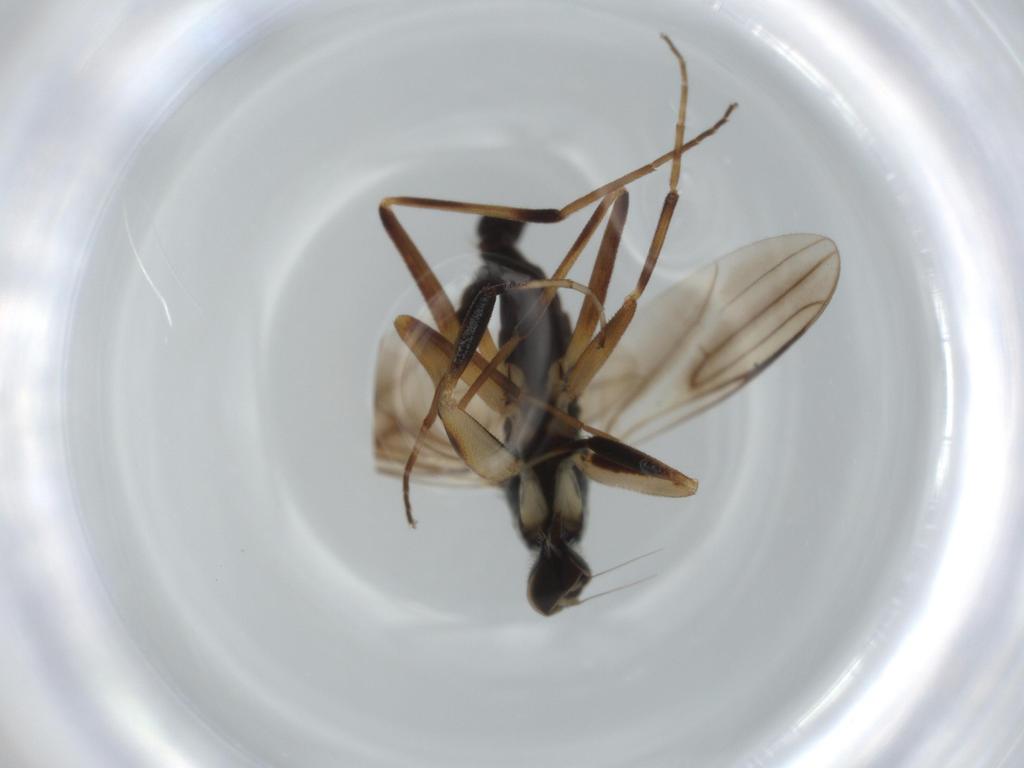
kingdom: Animalia
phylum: Arthropoda
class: Insecta
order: Diptera
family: Muscidae
